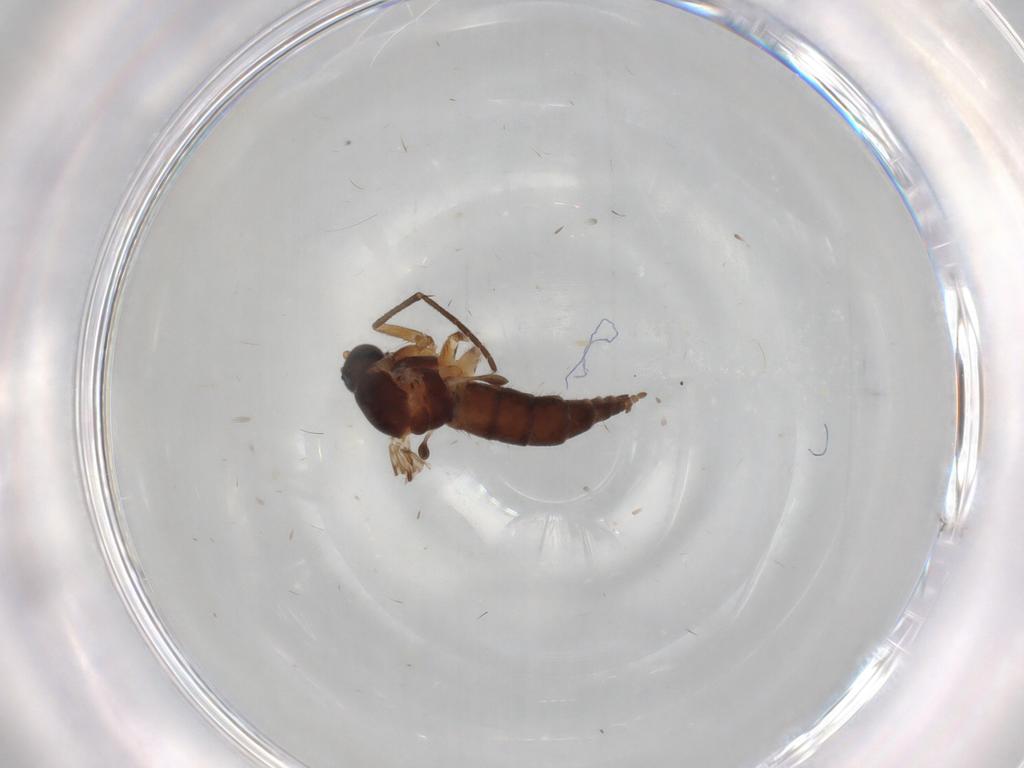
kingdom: Animalia
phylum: Arthropoda
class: Insecta
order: Diptera
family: Sciaridae
